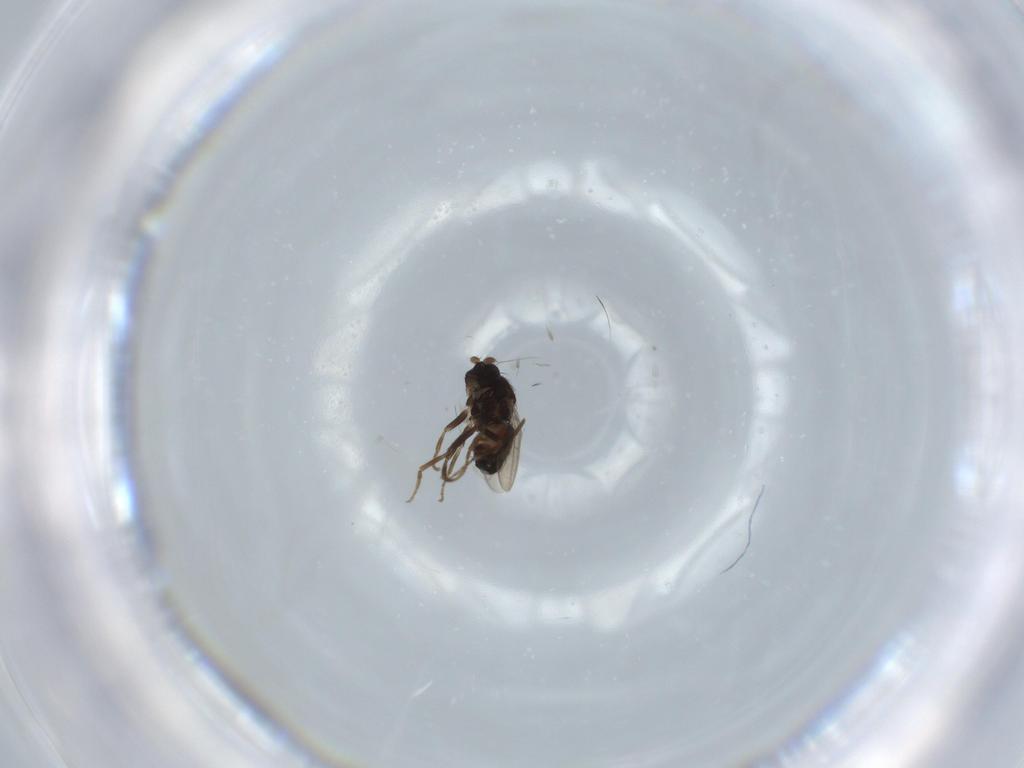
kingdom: Animalia
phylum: Arthropoda
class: Insecta
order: Diptera
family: Sphaeroceridae
